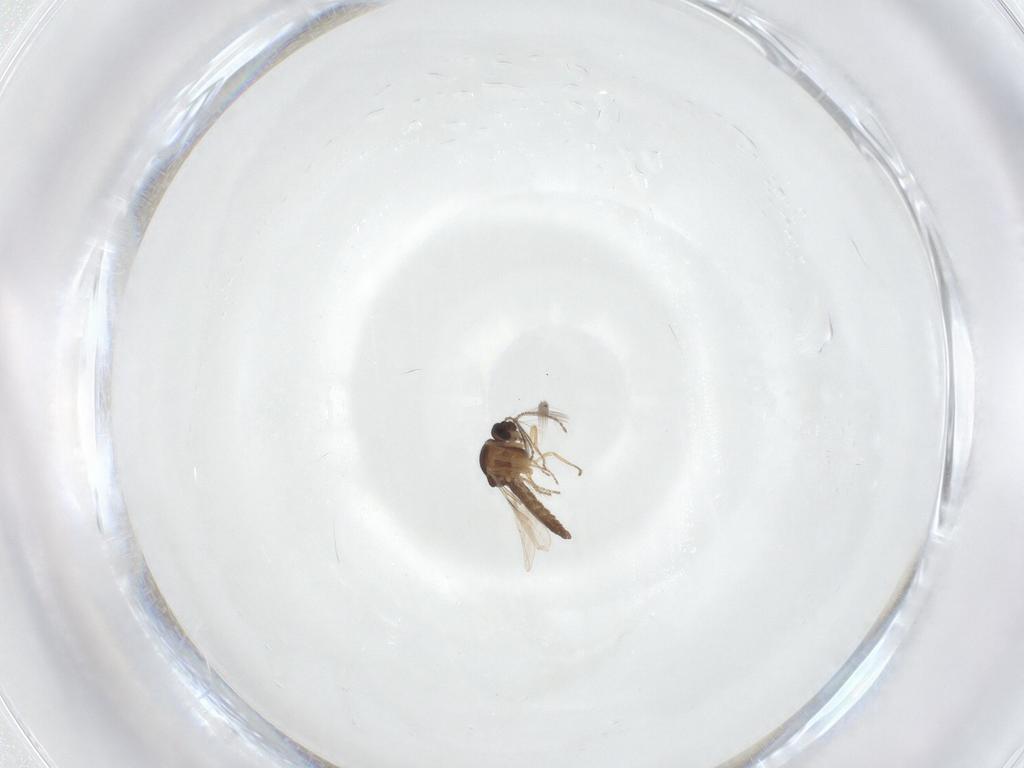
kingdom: Animalia
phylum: Arthropoda
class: Insecta
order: Diptera
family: Ceratopogonidae
